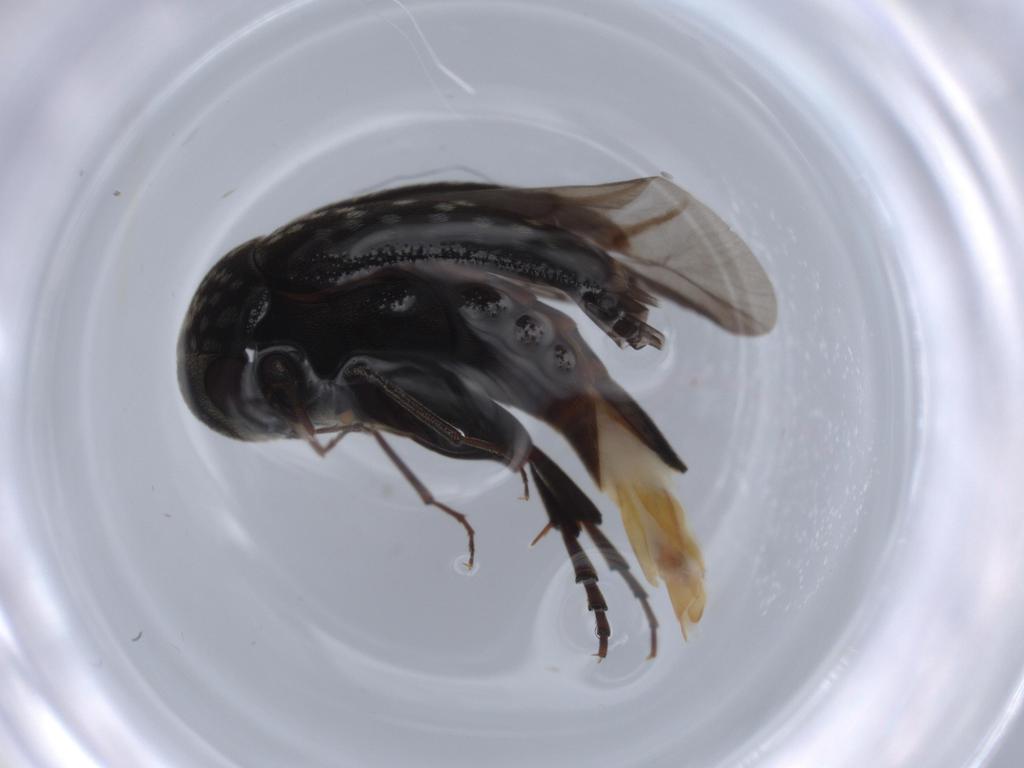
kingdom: Animalia
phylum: Arthropoda
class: Insecta
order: Coleoptera
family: Mordellidae
